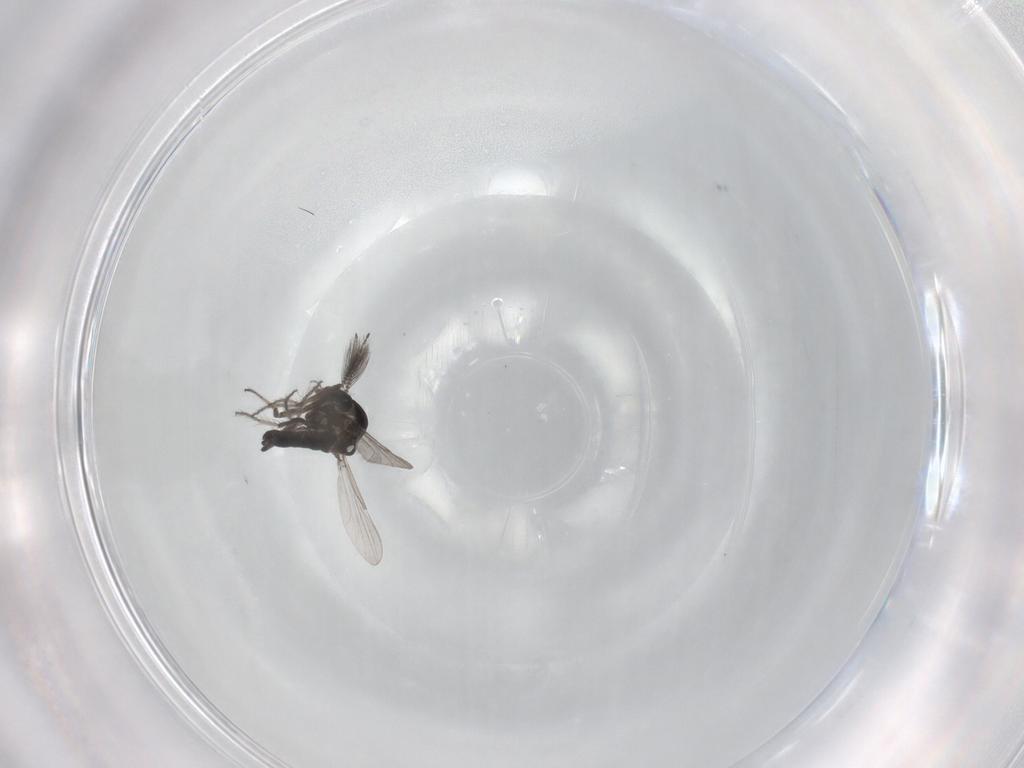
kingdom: Animalia
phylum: Arthropoda
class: Insecta
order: Diptera
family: Ceratopogonidae
